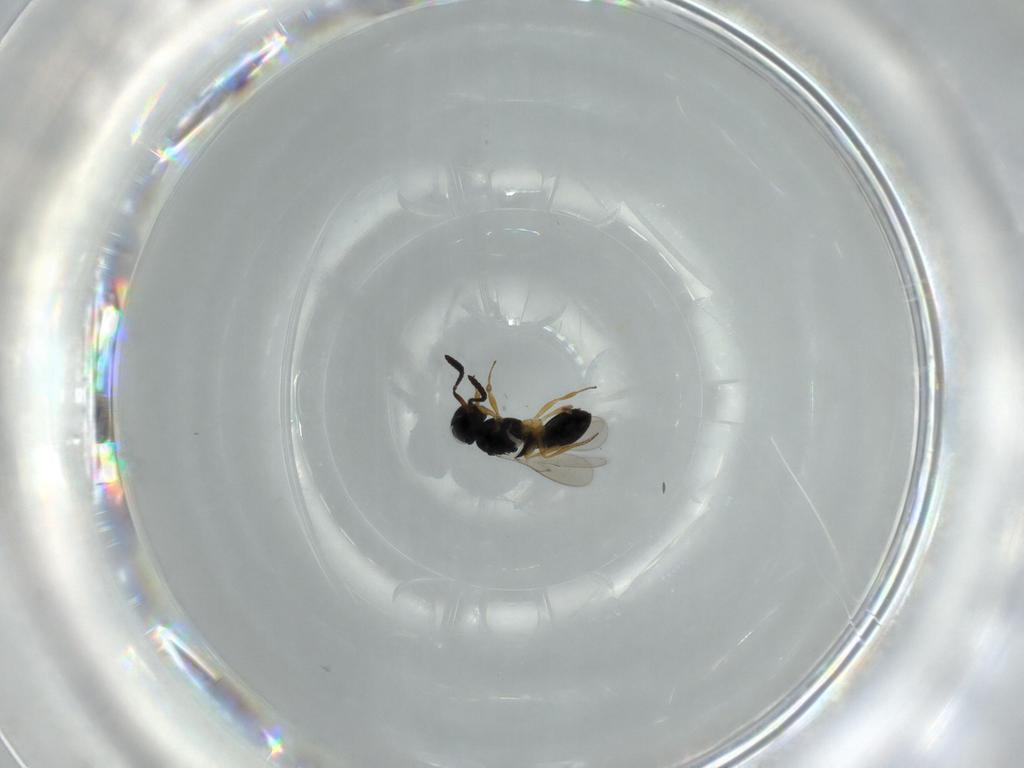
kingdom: Animalia
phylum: Arthropoda
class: Insecta
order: Hymenoptera
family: Scelionidae
